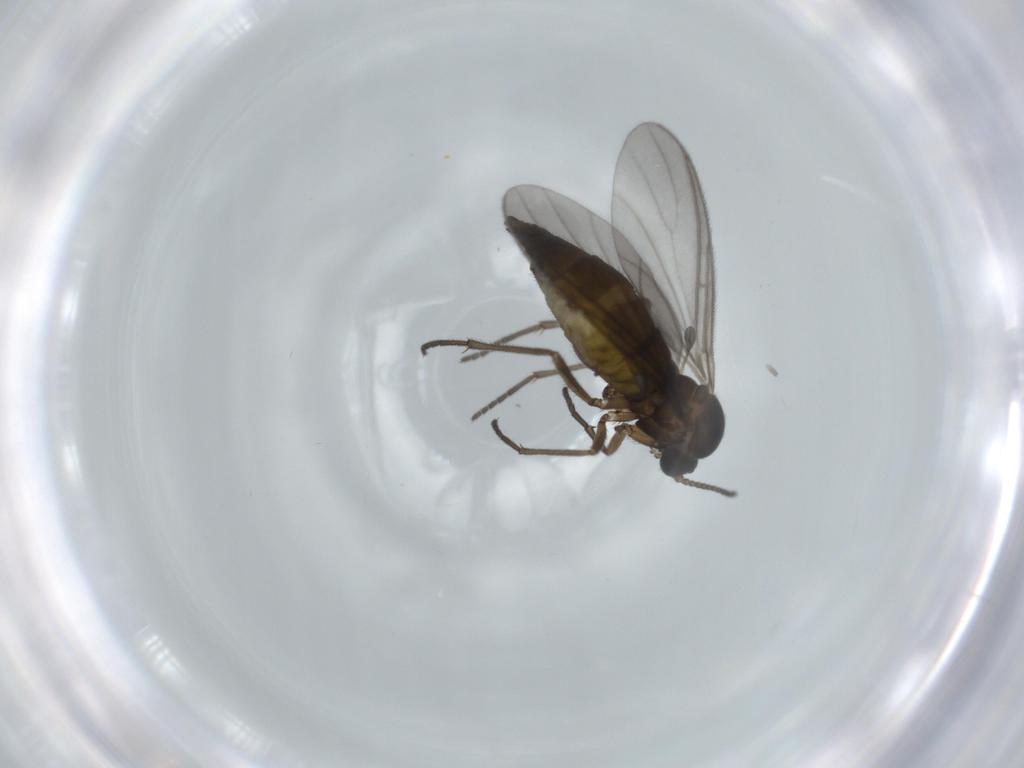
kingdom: Animalia
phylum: Arthropoda
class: Insecta
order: Diptera
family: Sciaridae
